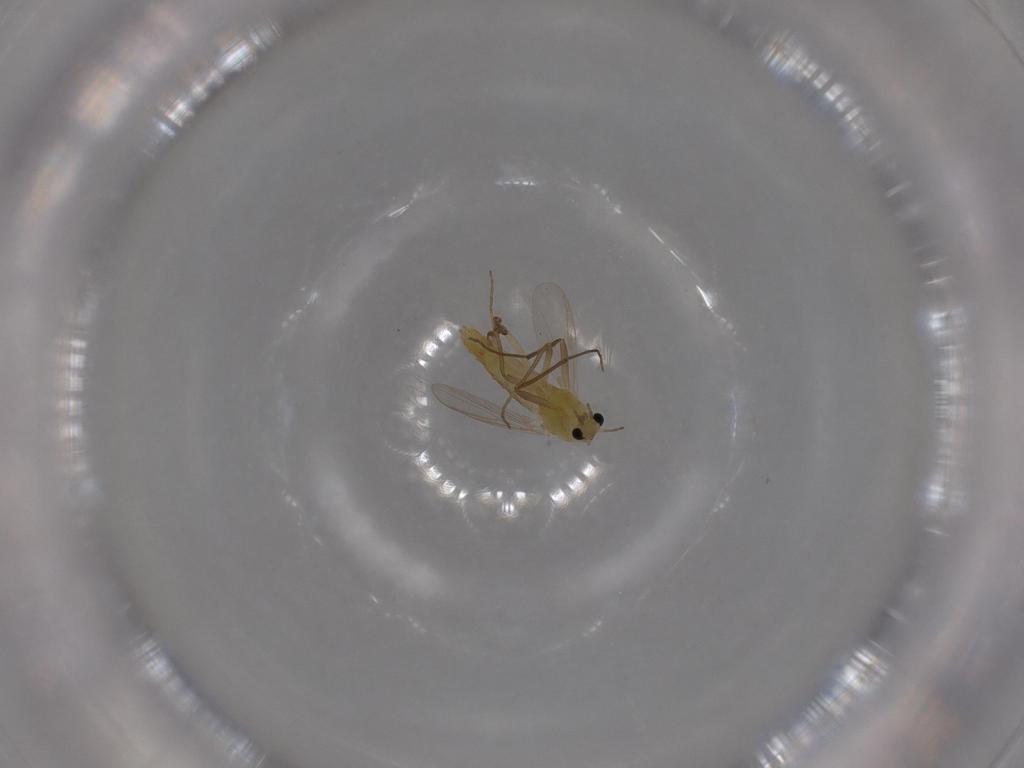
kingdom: Animalia
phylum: Arthropoda
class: Insecta
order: Diptera
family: Chironomidae
